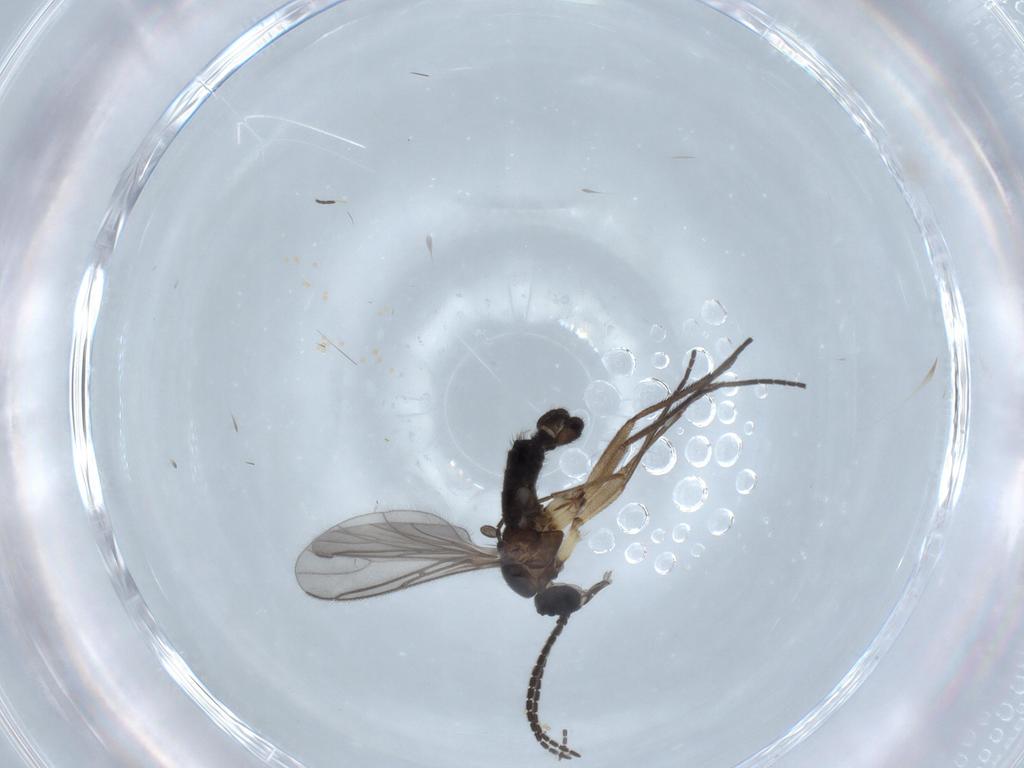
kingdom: Animalia
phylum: Arthropoda
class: Insecta
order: Diptera
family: Sciaridae
